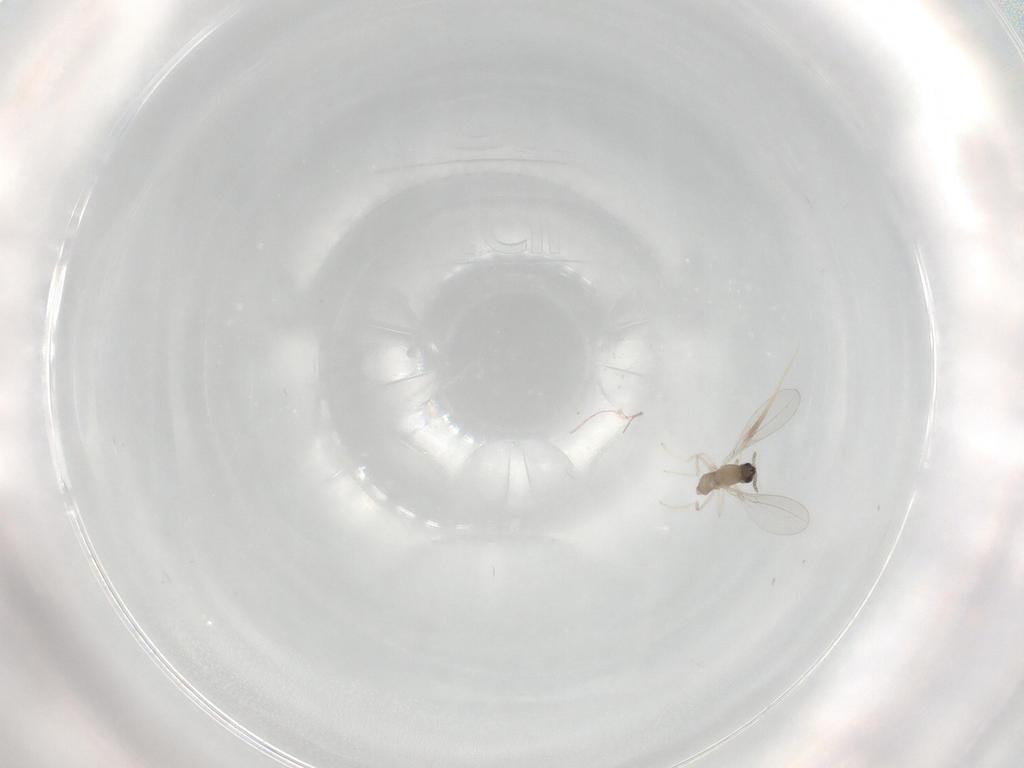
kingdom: Animalia
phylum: Arthropoda
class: Insecta
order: Diptera
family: Cecidomyiidae
